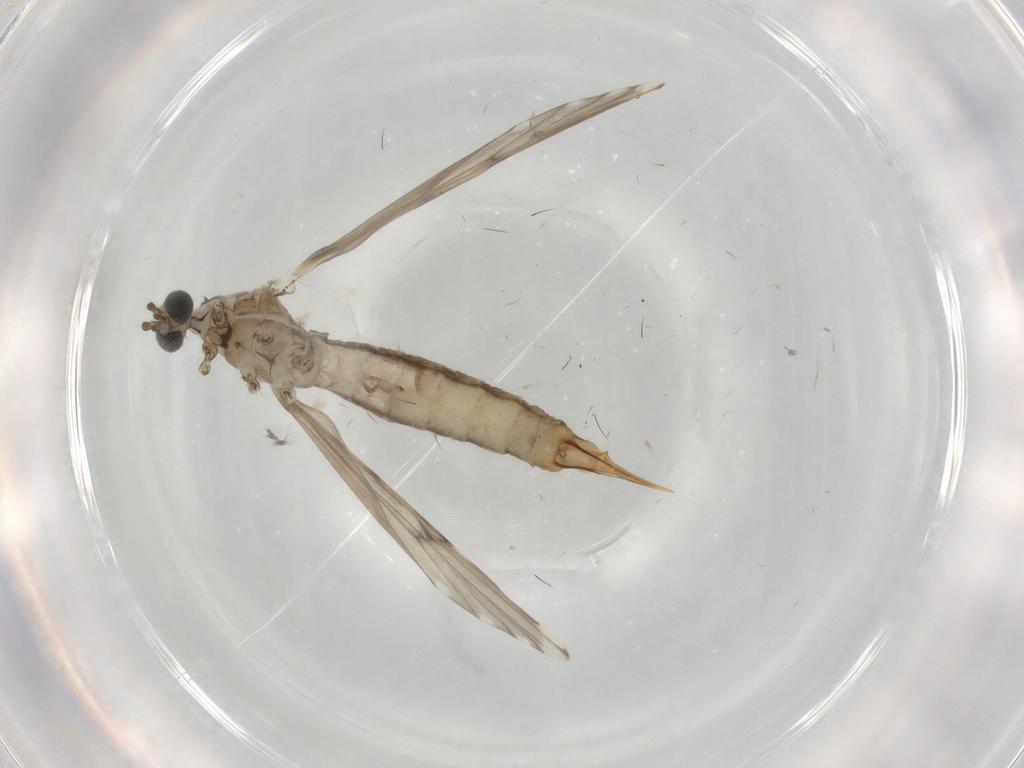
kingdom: Animalia
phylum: Arthropoda
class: Insecta
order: Diptera
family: Limoniidae
